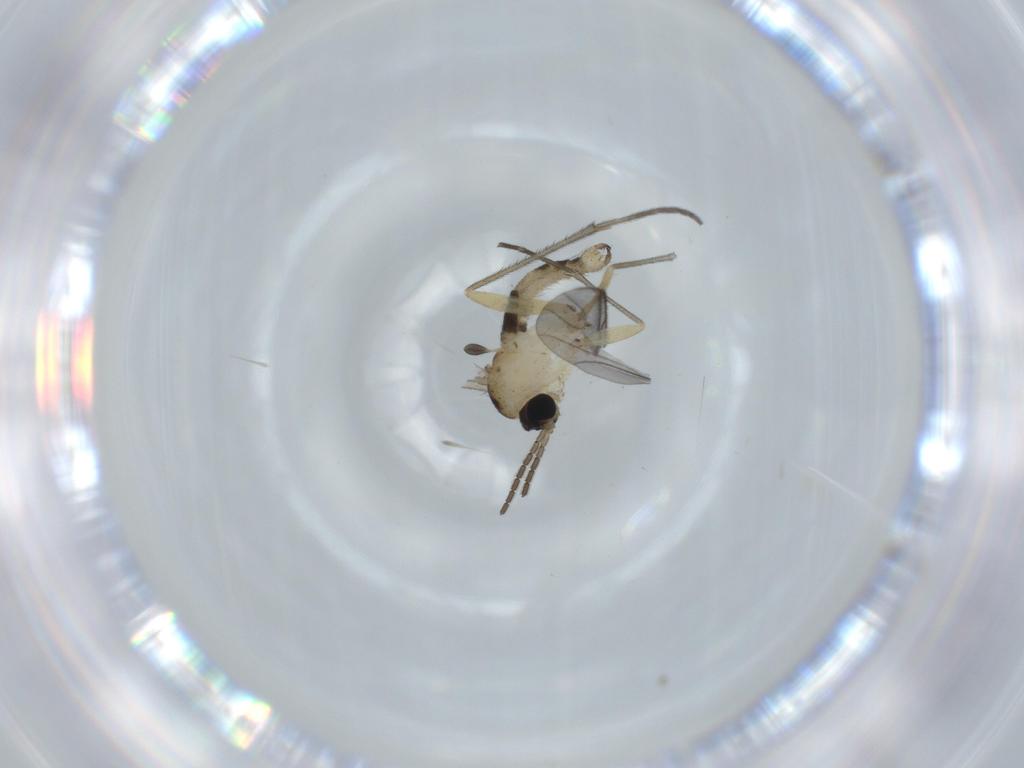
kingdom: Animalia
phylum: Arthropoda
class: Insecta
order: Diptera
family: Sciaridae
